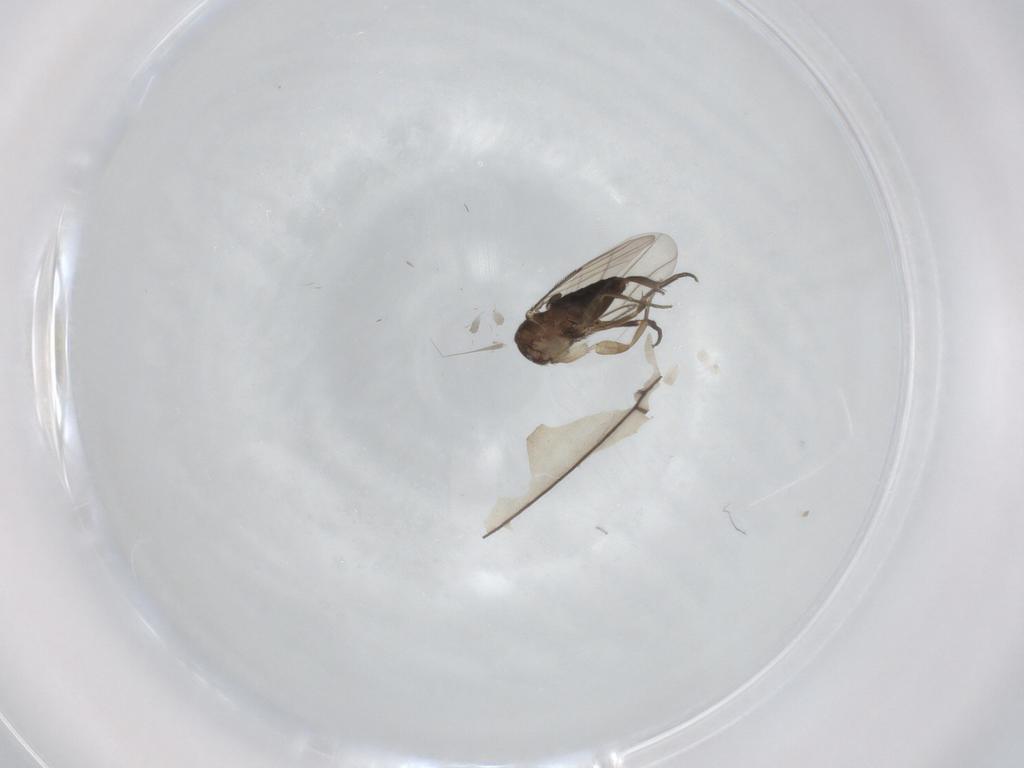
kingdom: Animalia
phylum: Arthropoda
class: Insecta
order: Diptera
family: Phoridae
